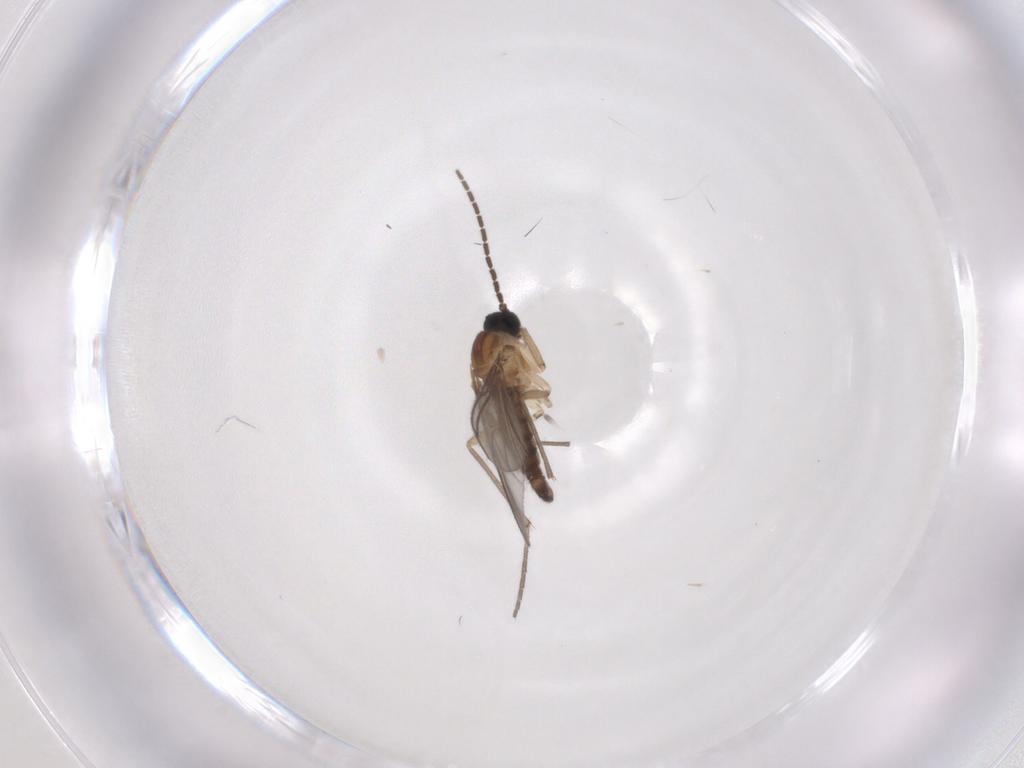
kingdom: Animalia
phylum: Arthropoda
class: Insecta
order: Diptera
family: Sciaridae
